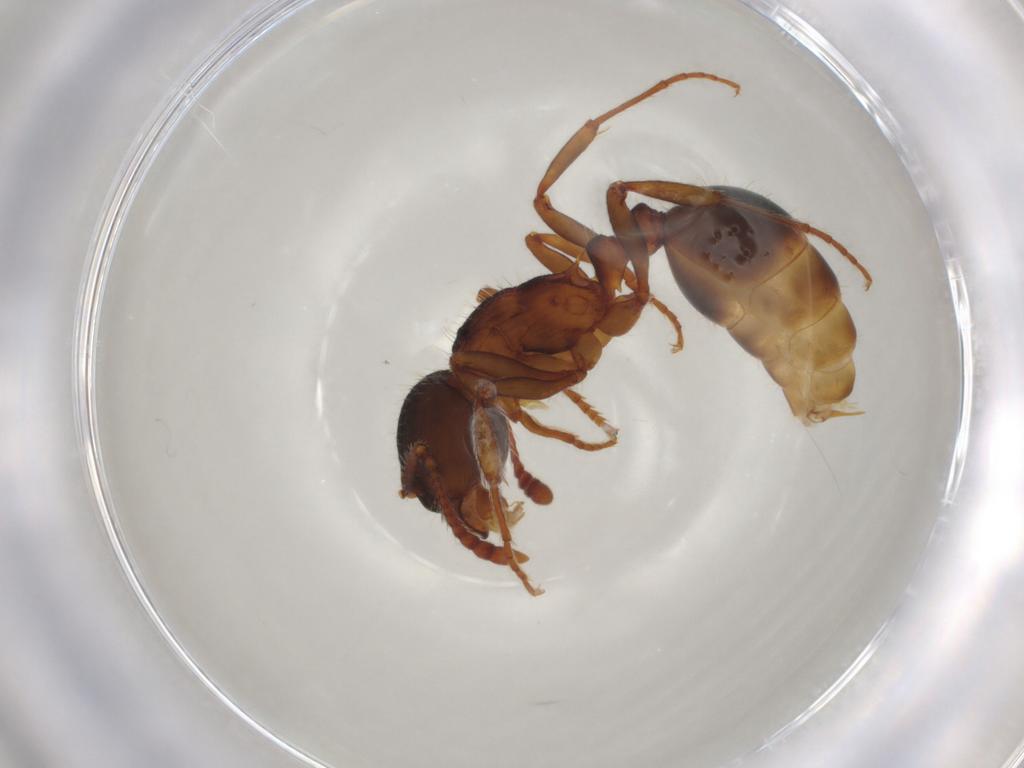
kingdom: Animalia
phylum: Arthropoda
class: Insecta
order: Hymenoptera
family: Formicidae
